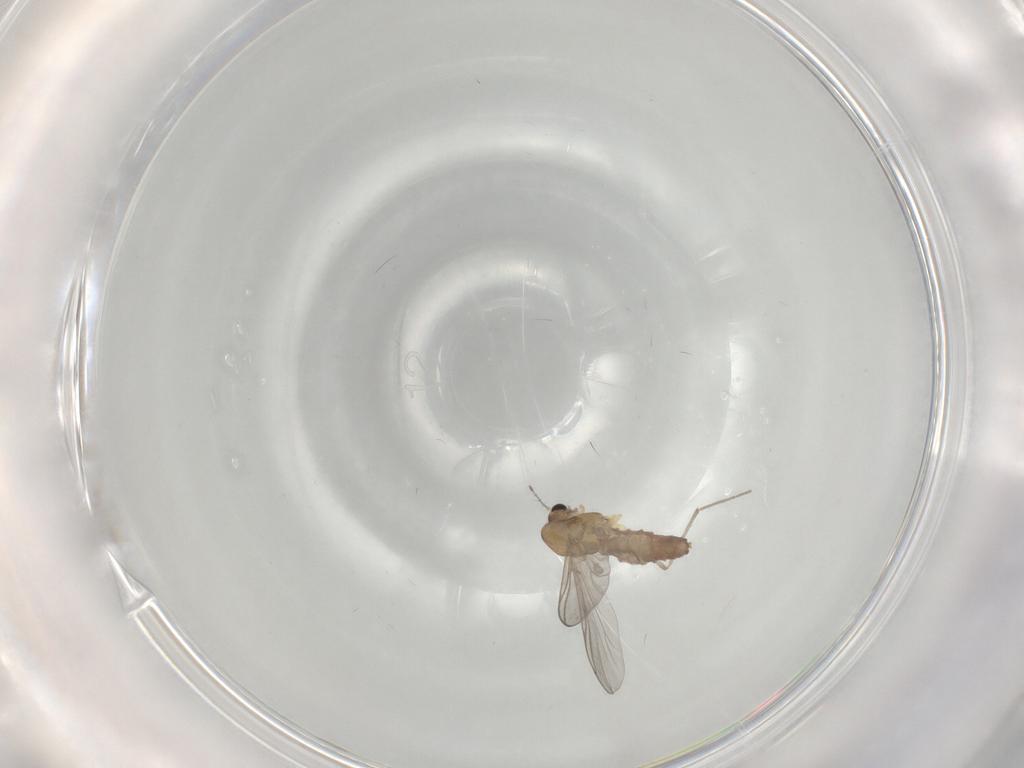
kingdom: Animalia
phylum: Arthropoda
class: Insecta
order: Diptera
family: Chironomidae
